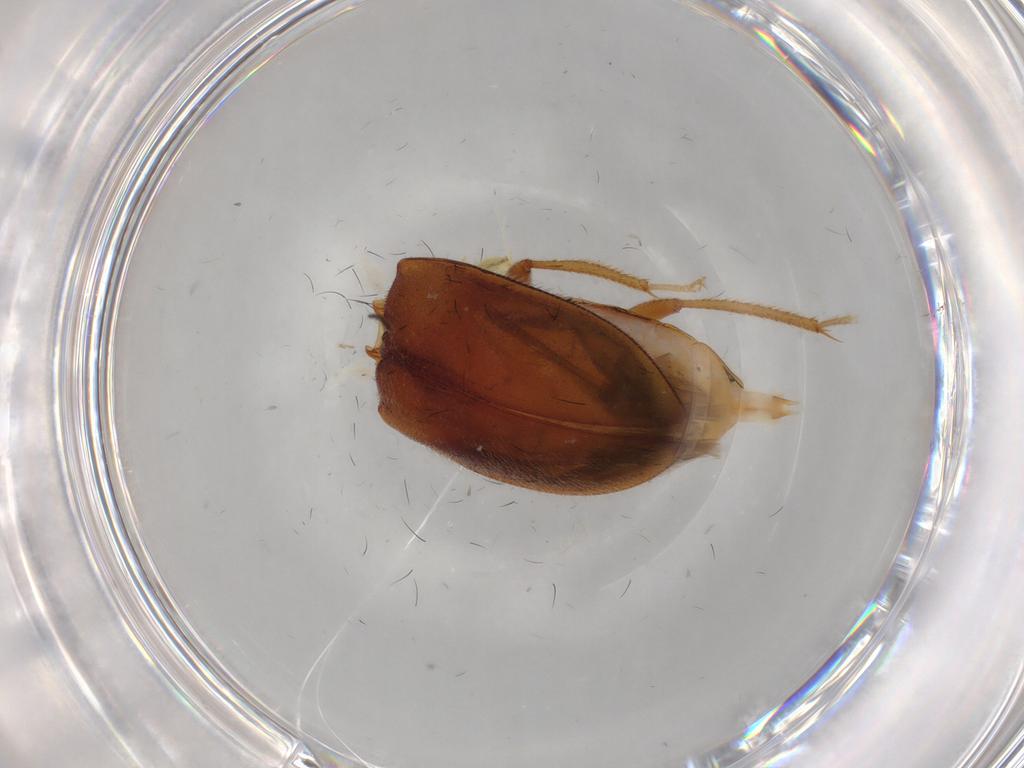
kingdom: Animalia
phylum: Arthropoda
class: Insecta
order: Coleoptera
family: Ptilodactylidae
